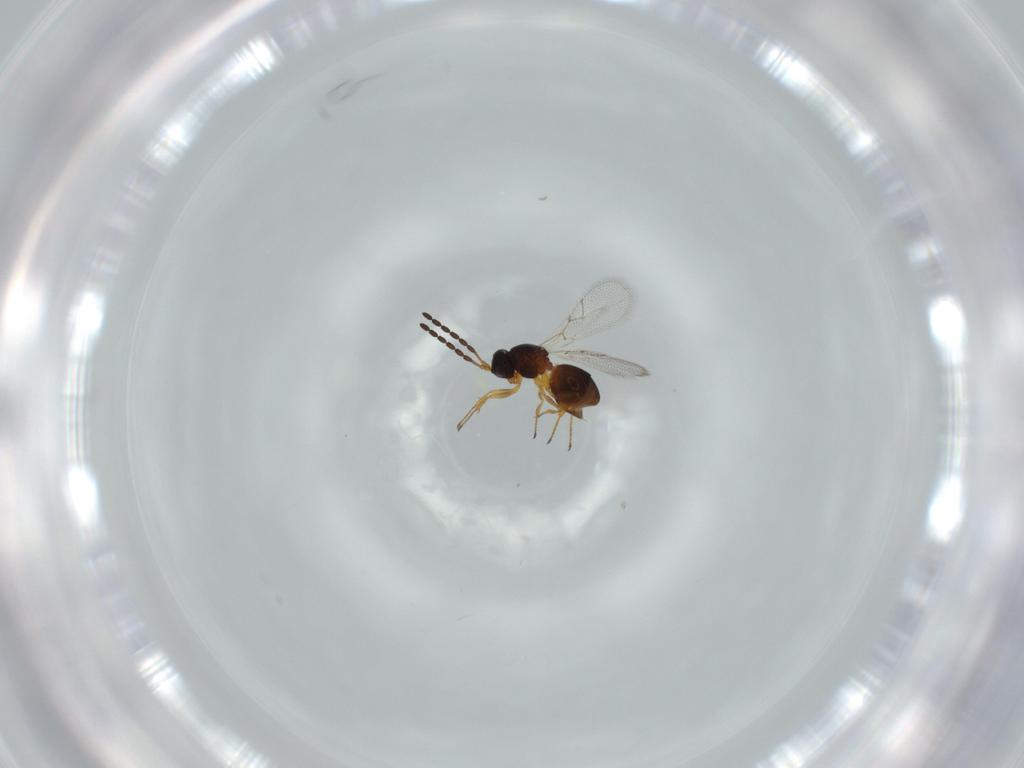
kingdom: Animalia
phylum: Arthropoda
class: Insecta
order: Hymenoptera
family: Figitidae
